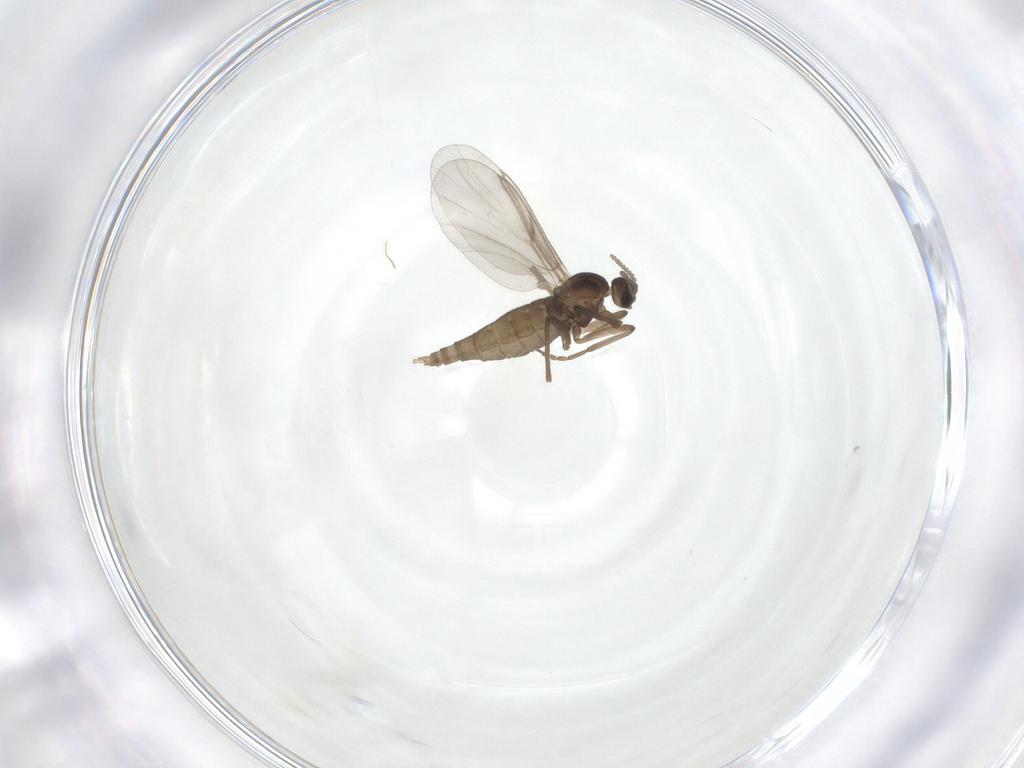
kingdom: Animalia
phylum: Arthropoda
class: Insecta
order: Diptera
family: Cecidomyiidae
